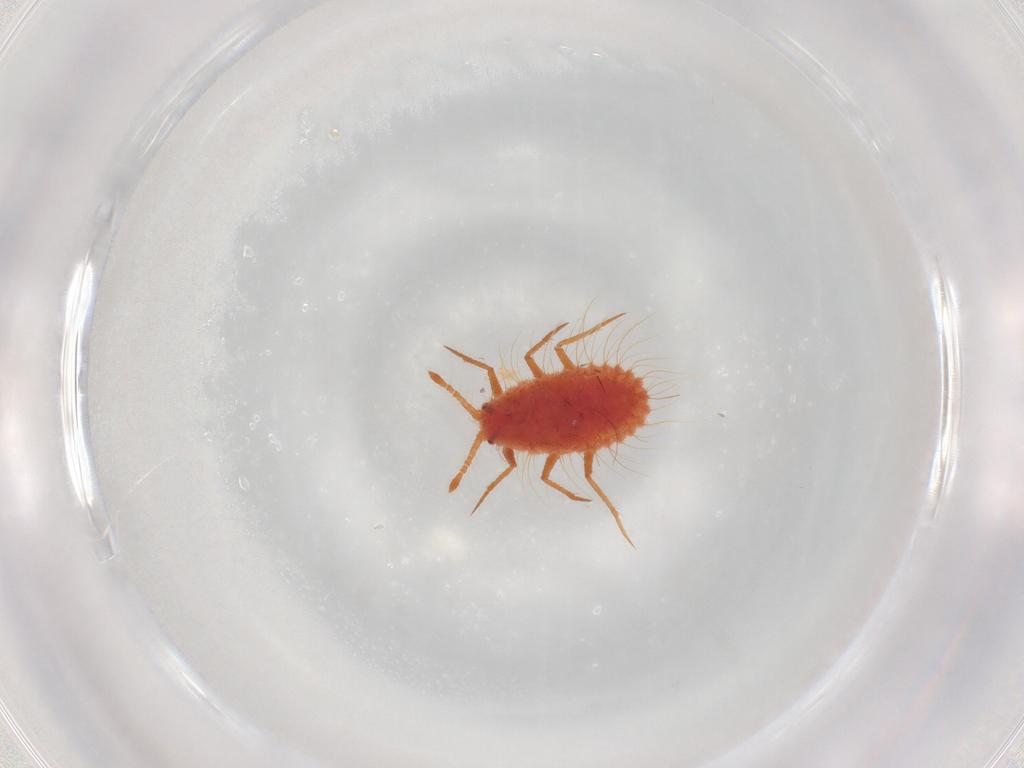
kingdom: Animalia
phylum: Arthropoda
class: Insecta
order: Hemiptera
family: Monophlebidae
